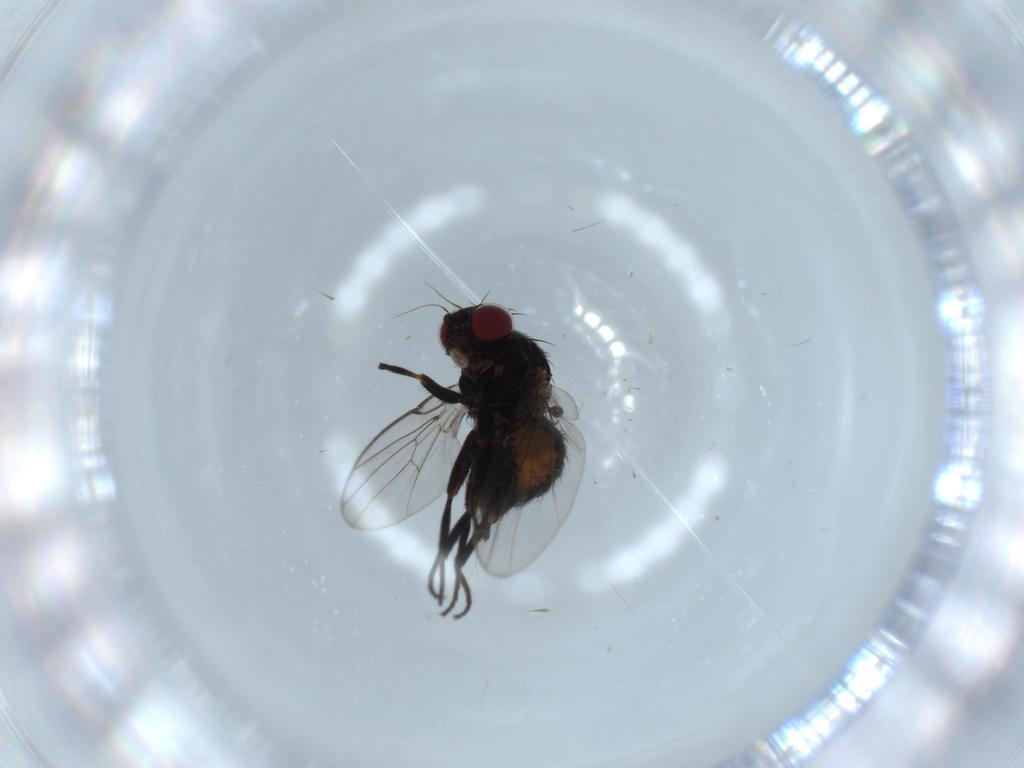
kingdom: Animalia
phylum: Arthropoda
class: Insecta
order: Diptera
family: Agromyzidae
